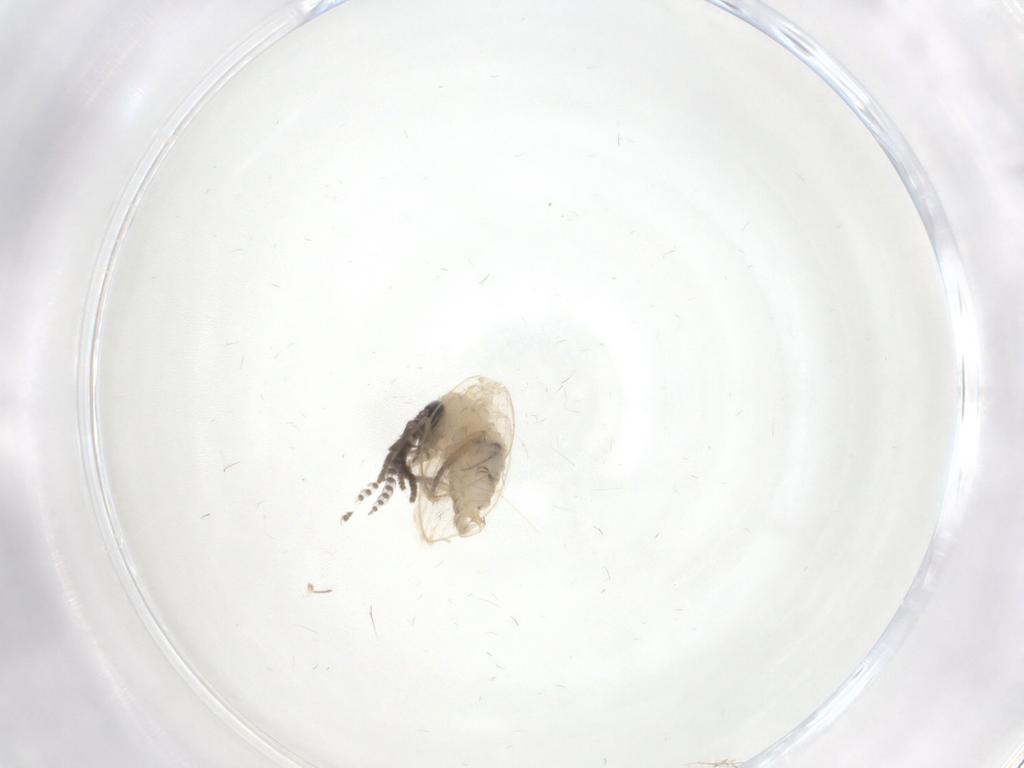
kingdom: Animalia
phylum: Arthropoda
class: Insecta
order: Diptera
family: Psychodidae
